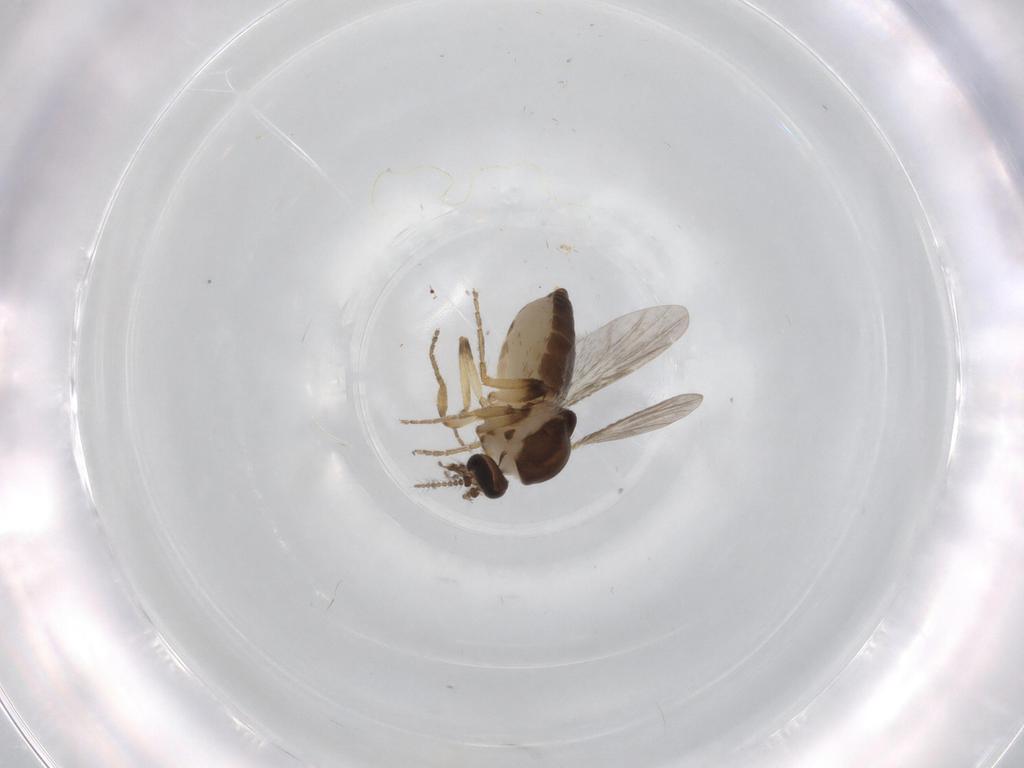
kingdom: Animalia
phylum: Arthropoda
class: Insecta
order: Diptera
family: Ceratopogonidae
